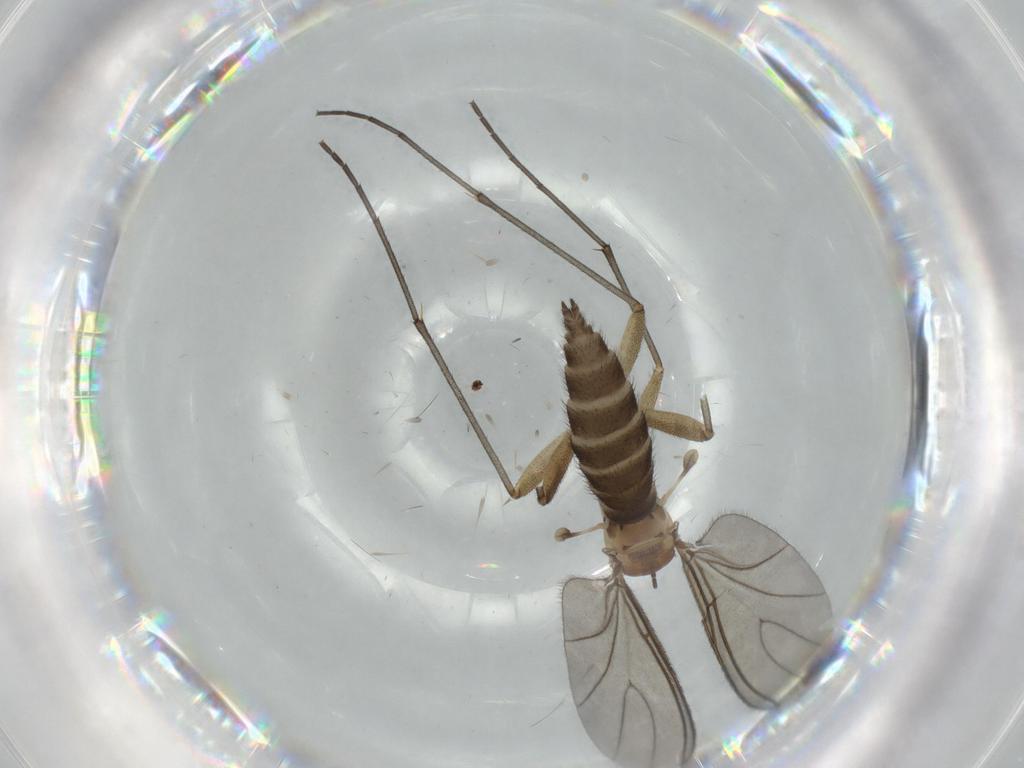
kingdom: Animalia
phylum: Arthropoda
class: Insecta
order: Diptera
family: Sciaridae
